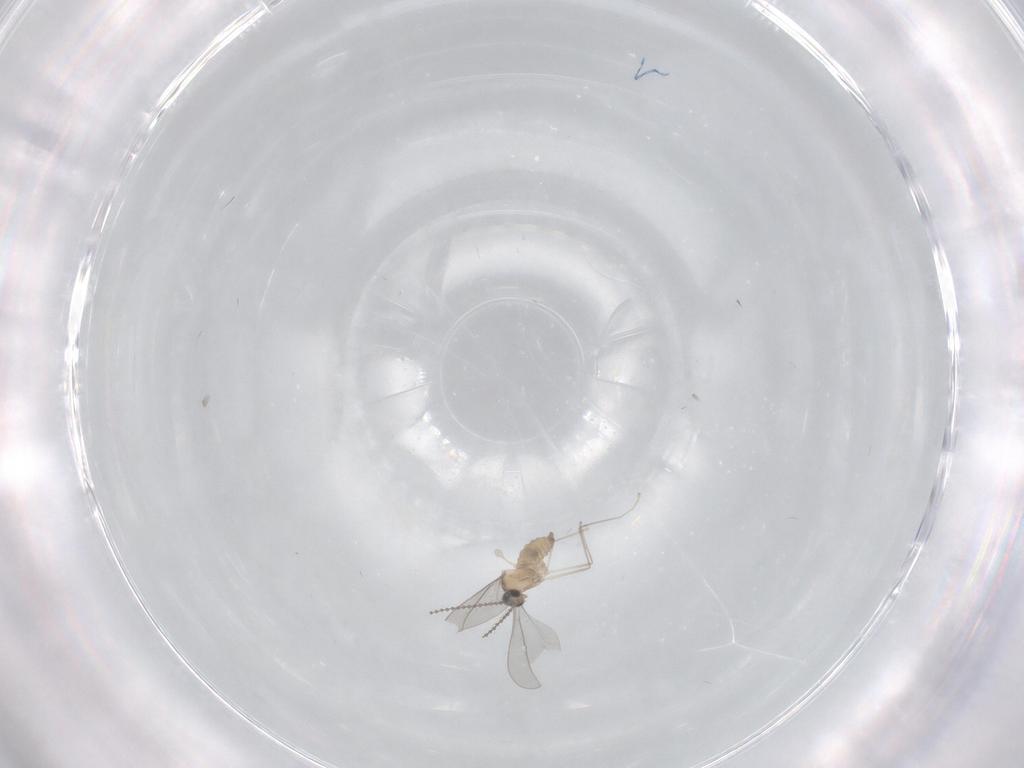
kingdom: Animalia
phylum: Arthropoda
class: Insecta
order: Diptera
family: Cecidomyiidae
